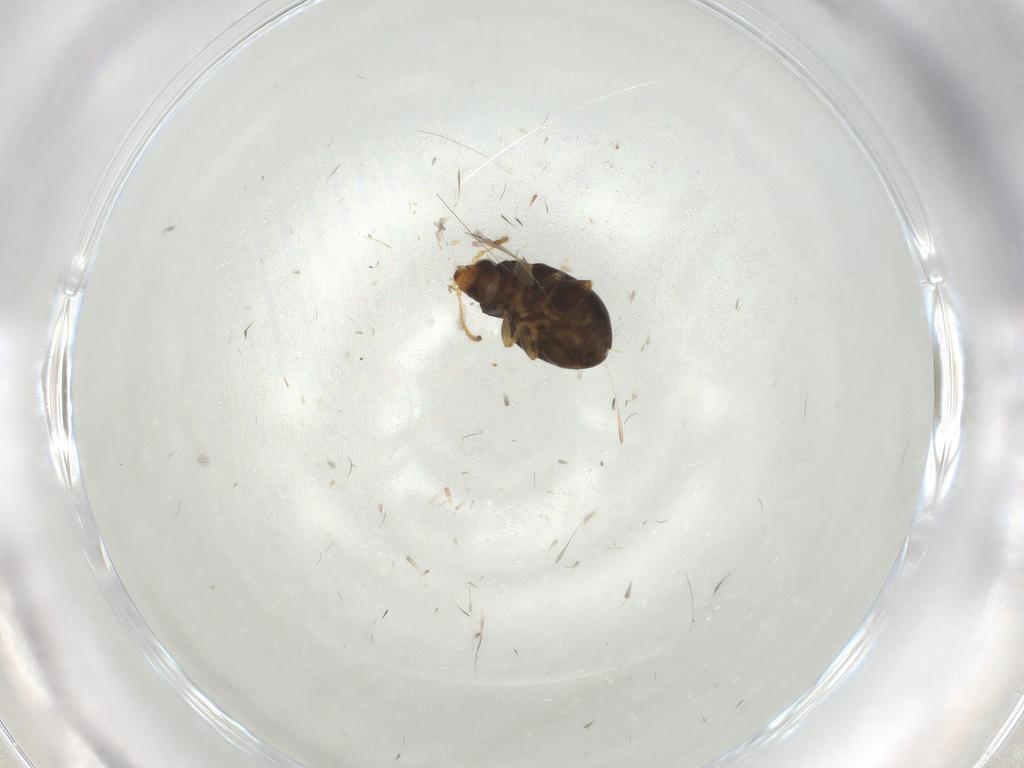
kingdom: Animalia
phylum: Arthropoda
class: Insecta
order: Coleoptera
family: Chrysomelidae
